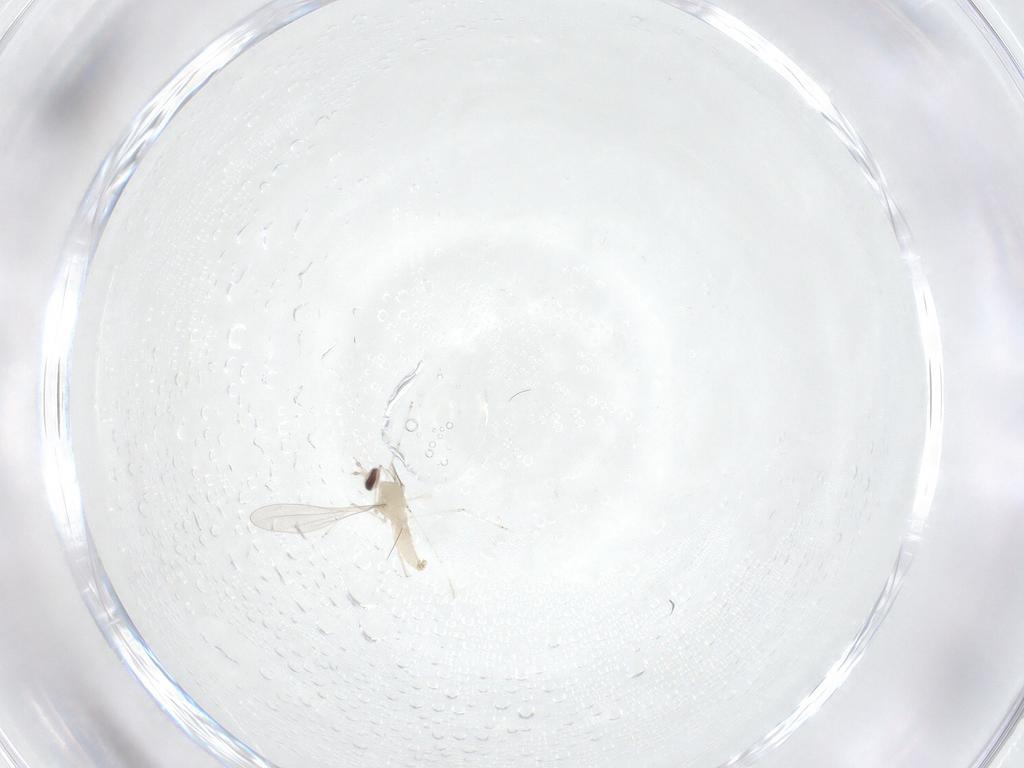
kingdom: Animalia
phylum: Arthropoda
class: Insecta
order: Diptera
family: Cecidomyiidae
